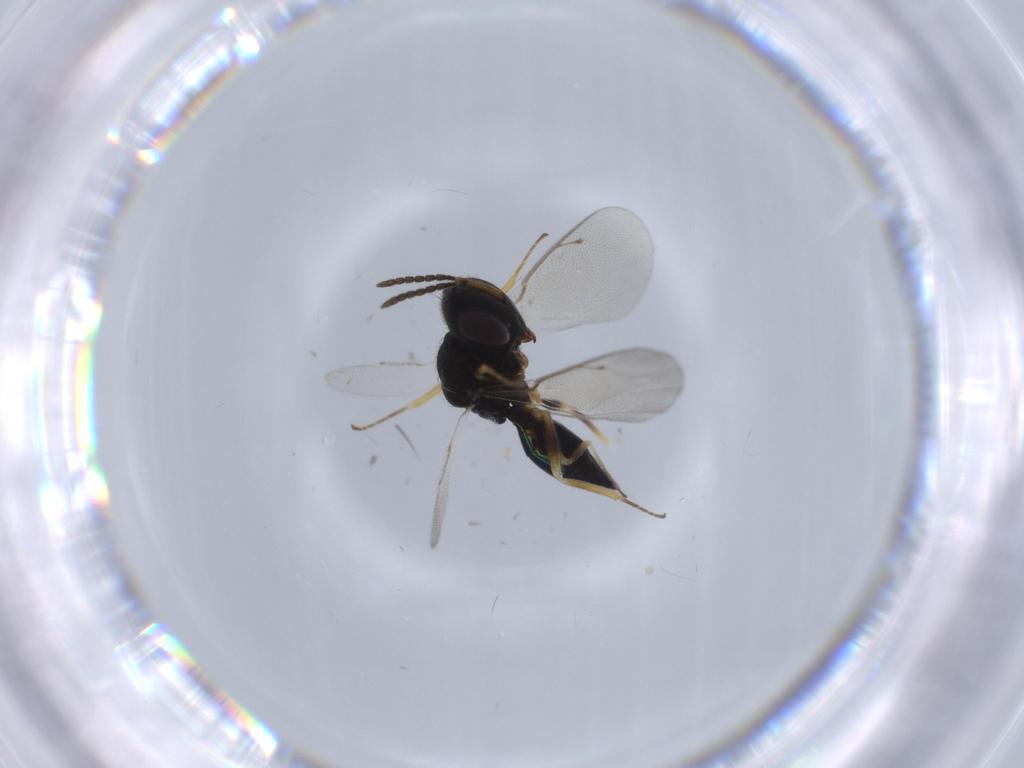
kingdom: Animalia
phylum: Arthropoda
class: Insecta
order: Hymenoptera
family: Pteromalidae
